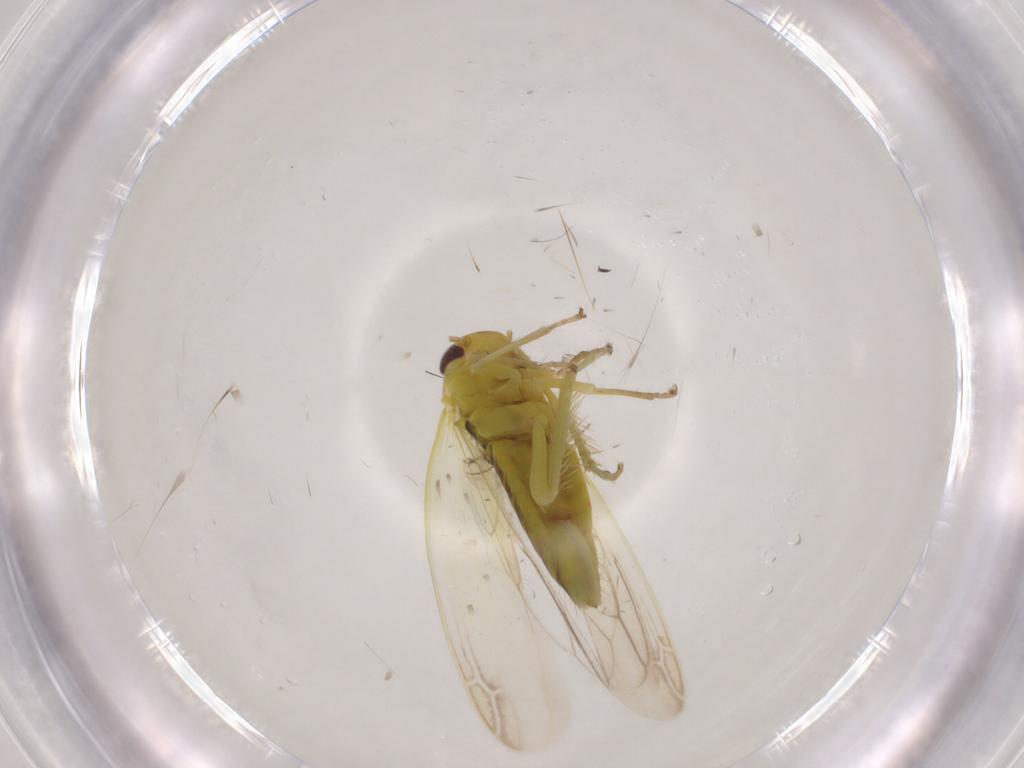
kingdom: Animalia
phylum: Arthropoda
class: Insecta
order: Hemiptera
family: Cicadellidae
